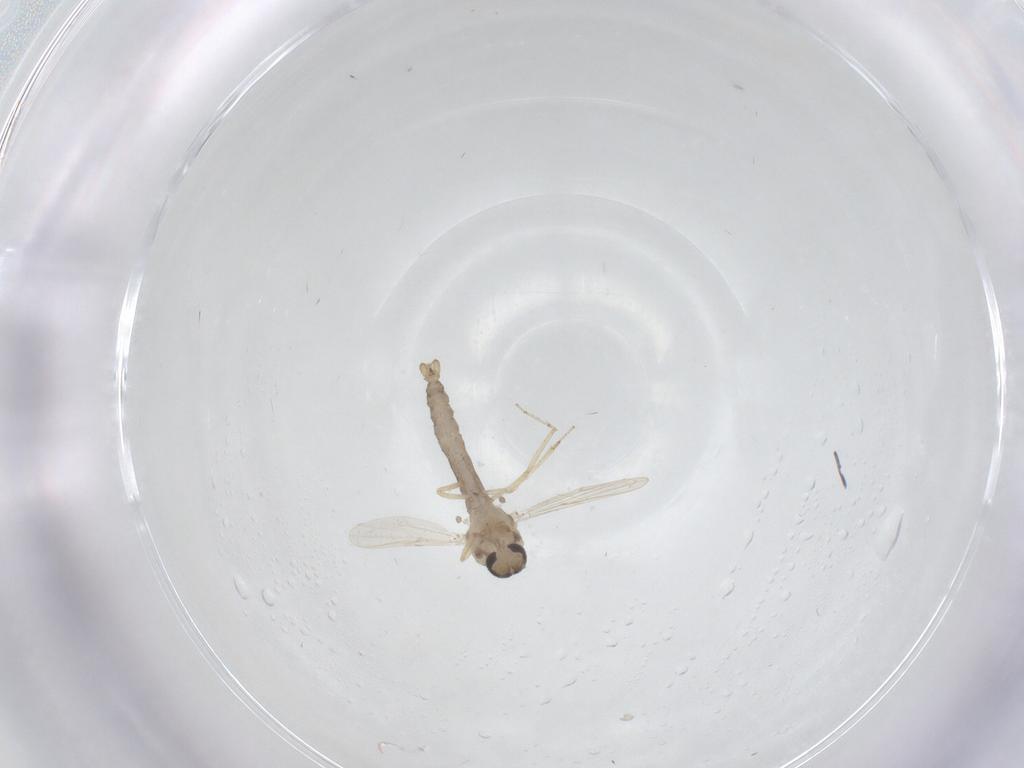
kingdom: Animalia
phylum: Arthropoda
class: Insecta
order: Diptera
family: Ceratopogonidae
